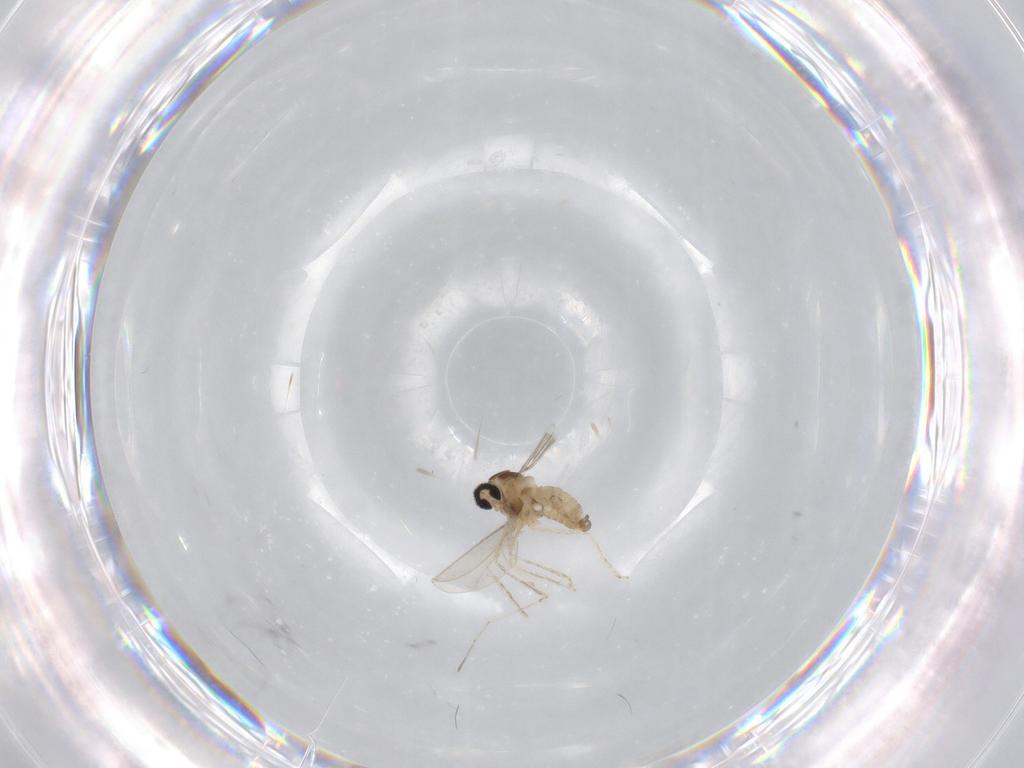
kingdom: Animalia
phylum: Arthropoda
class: Insecta
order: Diptera
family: Cecidomyiidae
